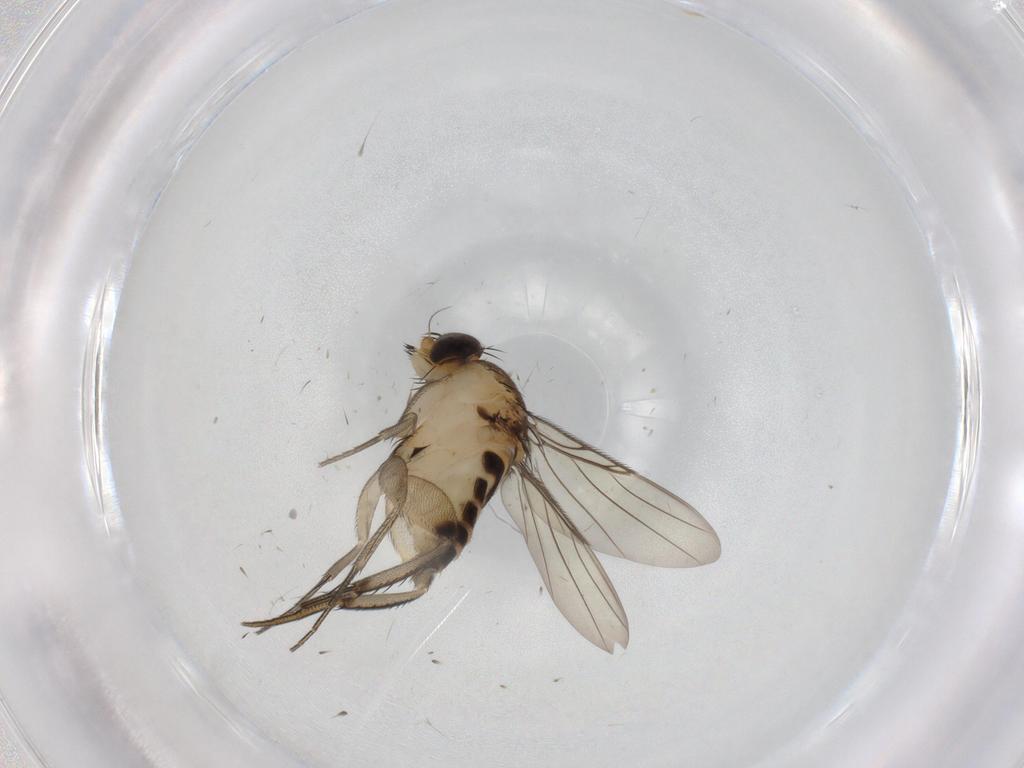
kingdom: Animalia
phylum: Arthropoda
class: Insecta
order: Diptera
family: Phoridae
